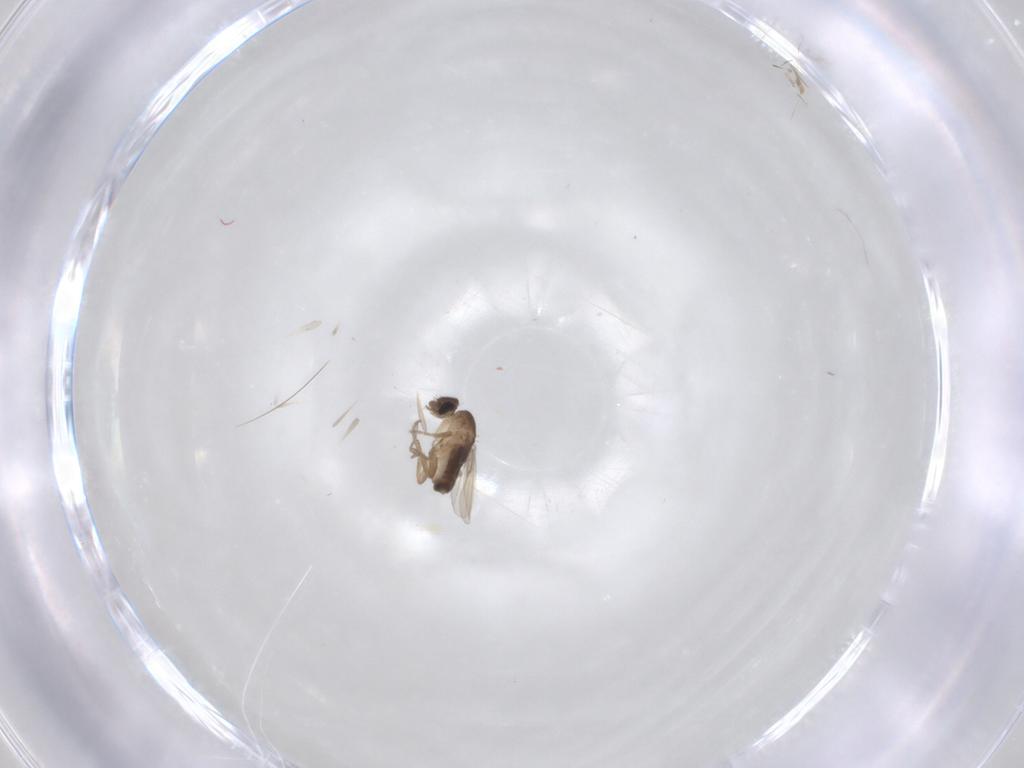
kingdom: Animalia
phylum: Arthropoda
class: Insecta
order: Diptera
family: Phoridae
